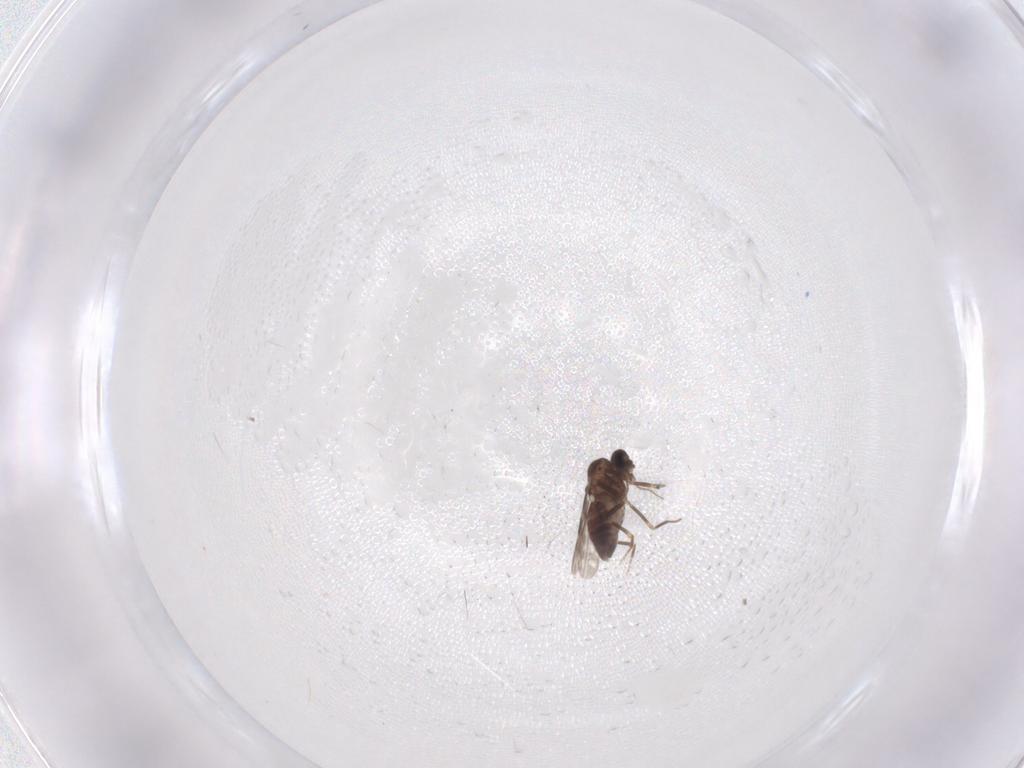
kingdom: Animalia
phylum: Arthropoda
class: Insecta
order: Diptera
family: Ceratopogonidae
